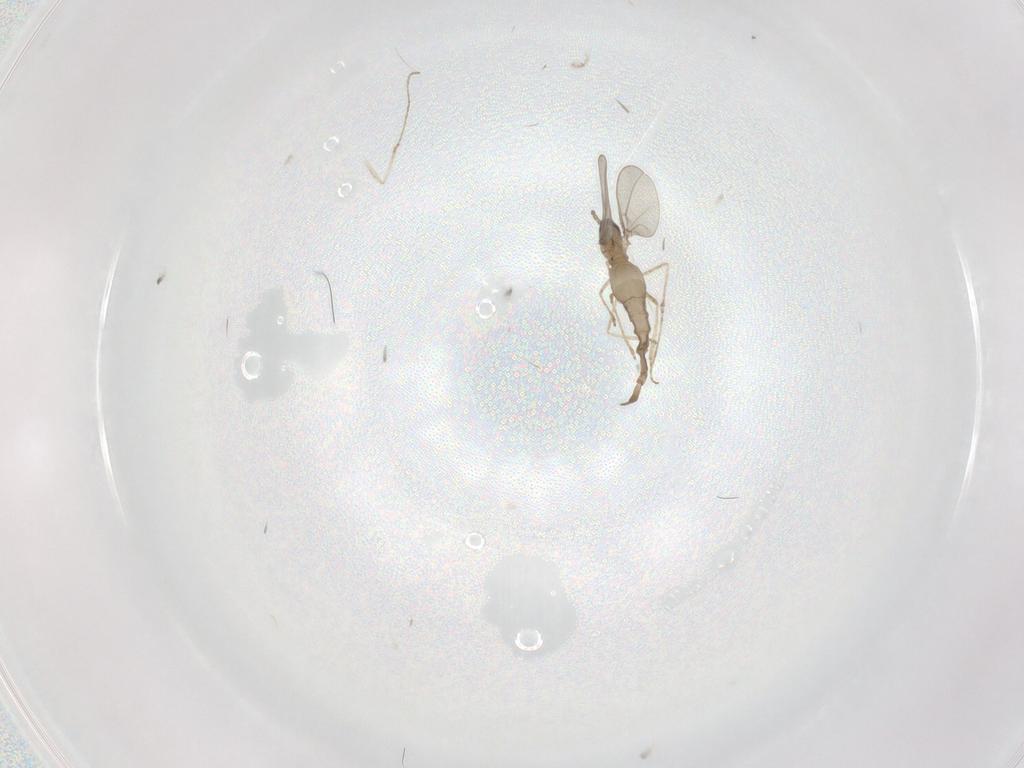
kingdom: Animalia
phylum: Arthropoda
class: Insecta
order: Diptera
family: Cecidomyiidae
